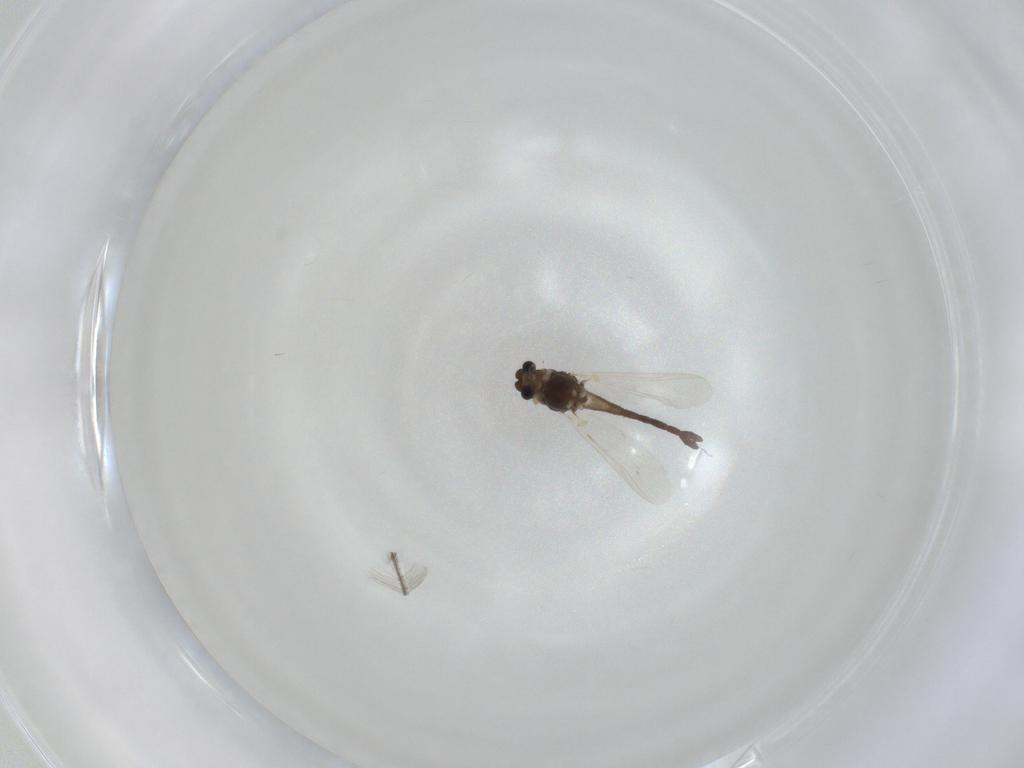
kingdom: Animalia
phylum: Arthropoda
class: Insecta
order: Diptera
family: Chironomidae
